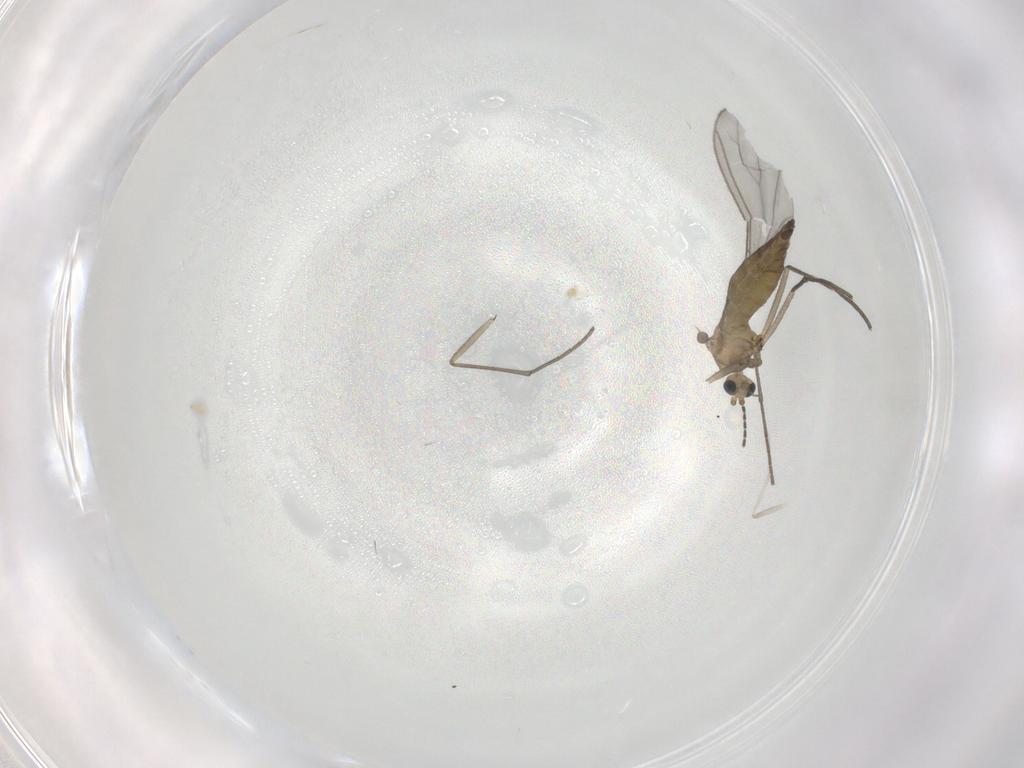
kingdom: Animalia
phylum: Arthropoda
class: Insecta
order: Diptera
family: Sciaridae
